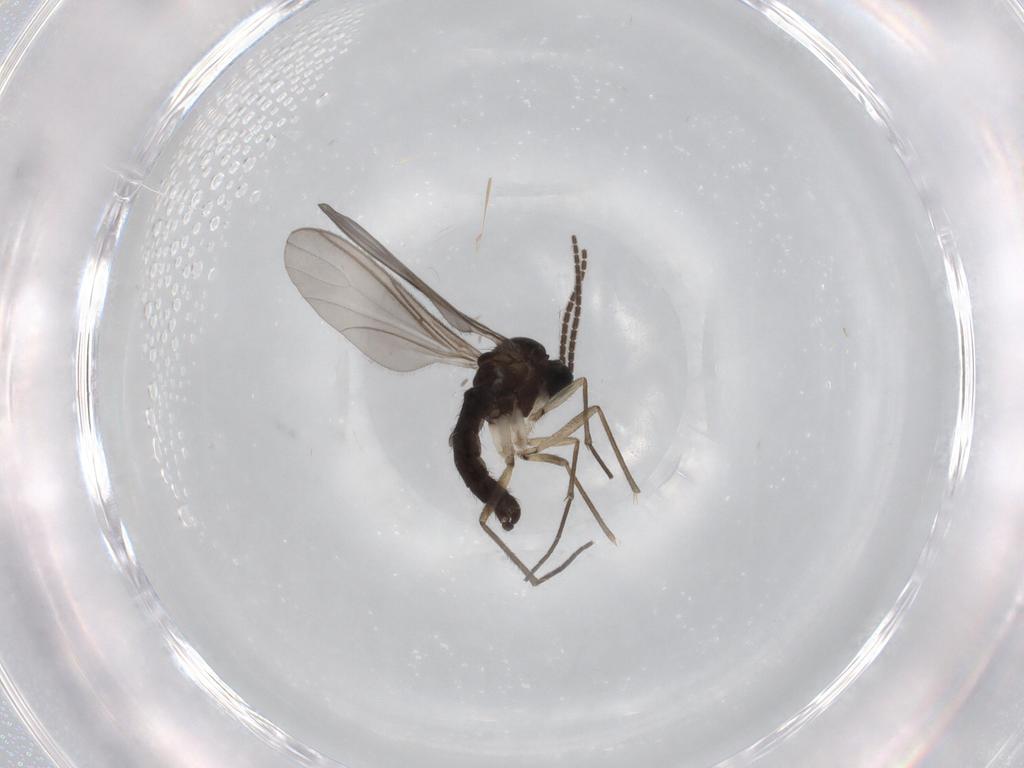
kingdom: Animalia
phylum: Arthropoda
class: Insecta
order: Diptera
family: Sciaridae
